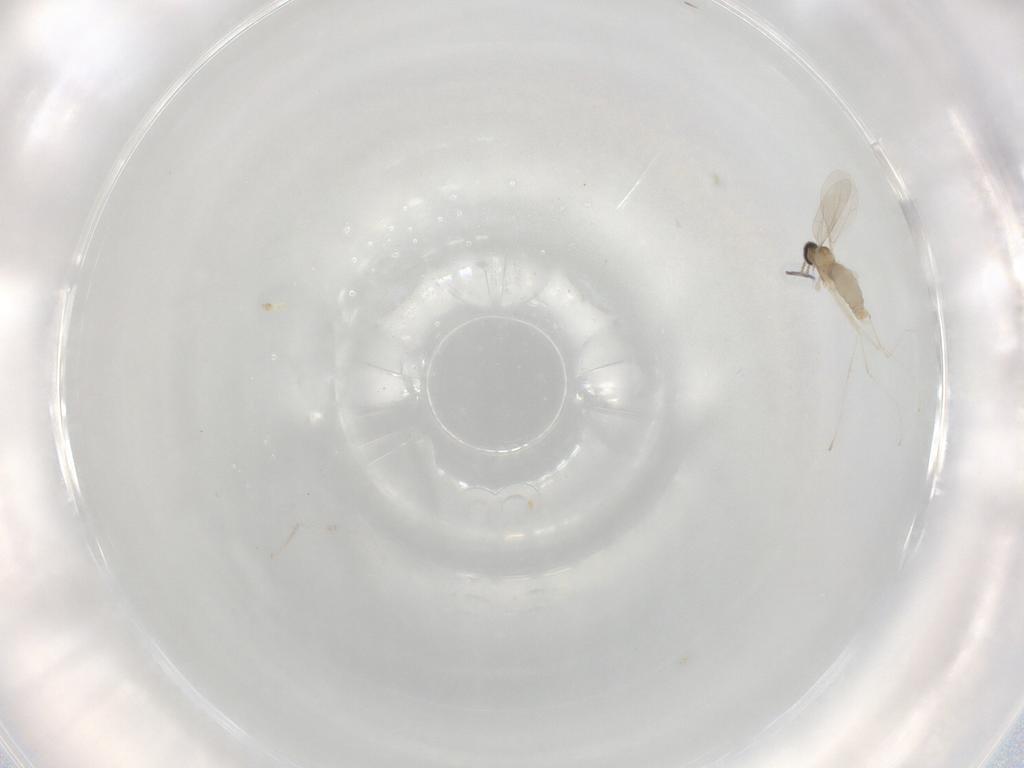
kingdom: Animalia
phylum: Arthropoda
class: Insecta
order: Diptera
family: Cecidomyiidae
